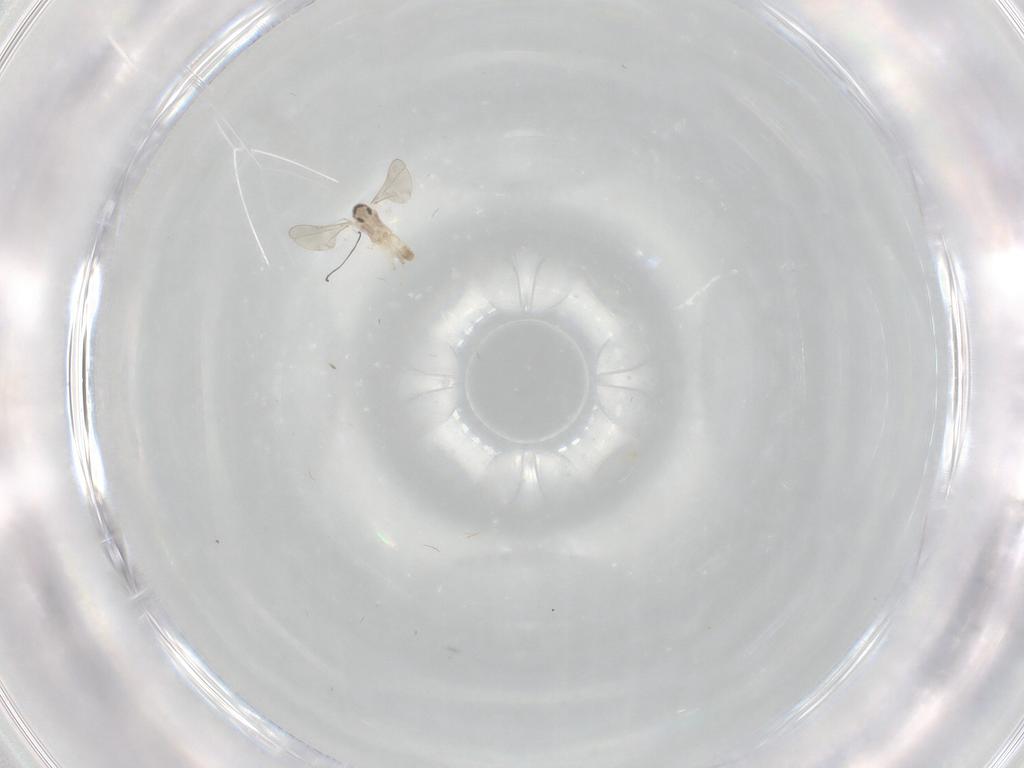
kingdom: Animalia
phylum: Arthropoda
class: Insecta
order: Diptera
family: Cecidomyiidae
